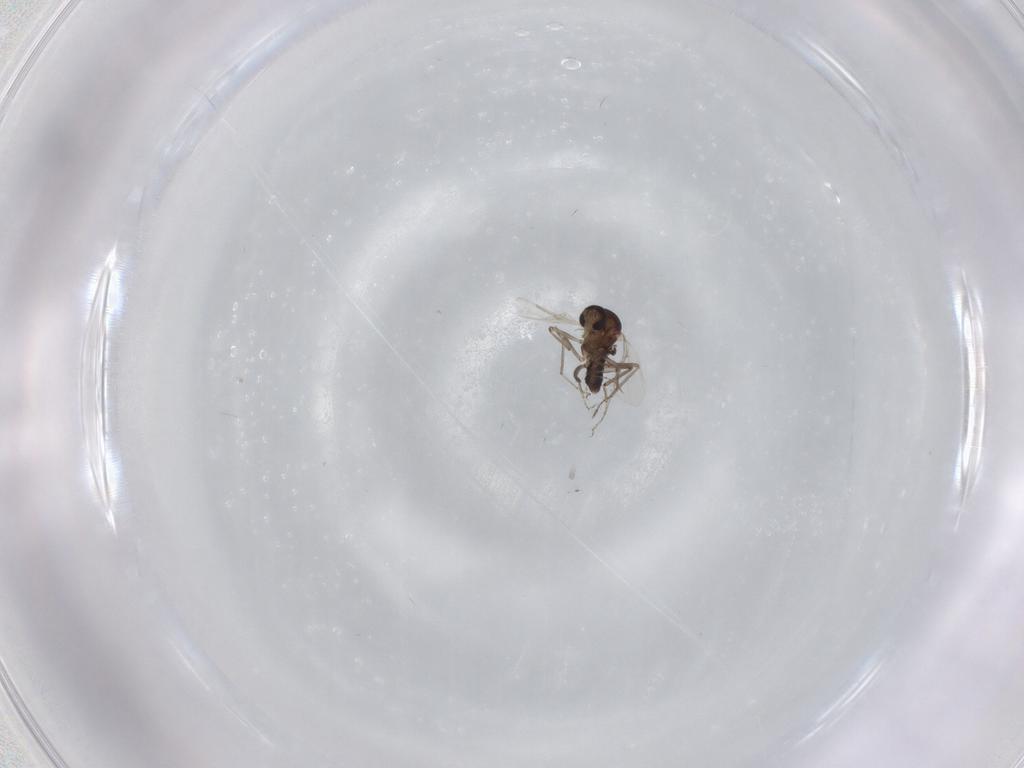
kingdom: Animalia
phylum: Arthropoda
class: Insecta
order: Diptera
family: Ceratopogonidae
